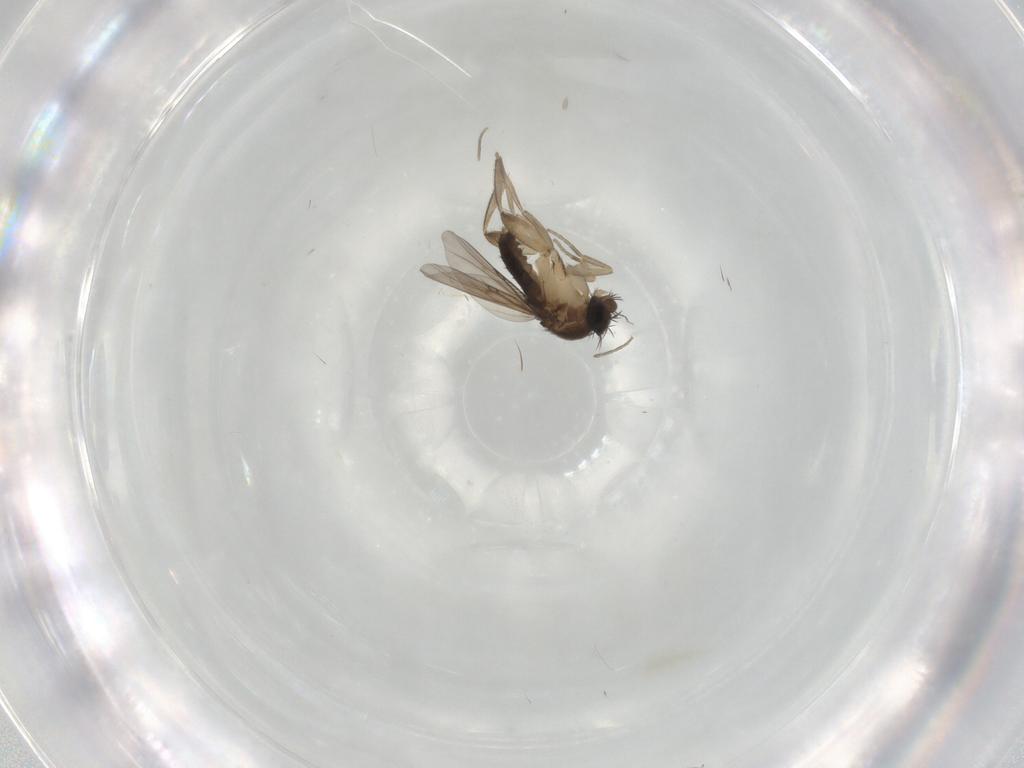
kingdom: Animalia
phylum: Arthropoda
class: Insecta
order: Diptera
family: Phoridae
